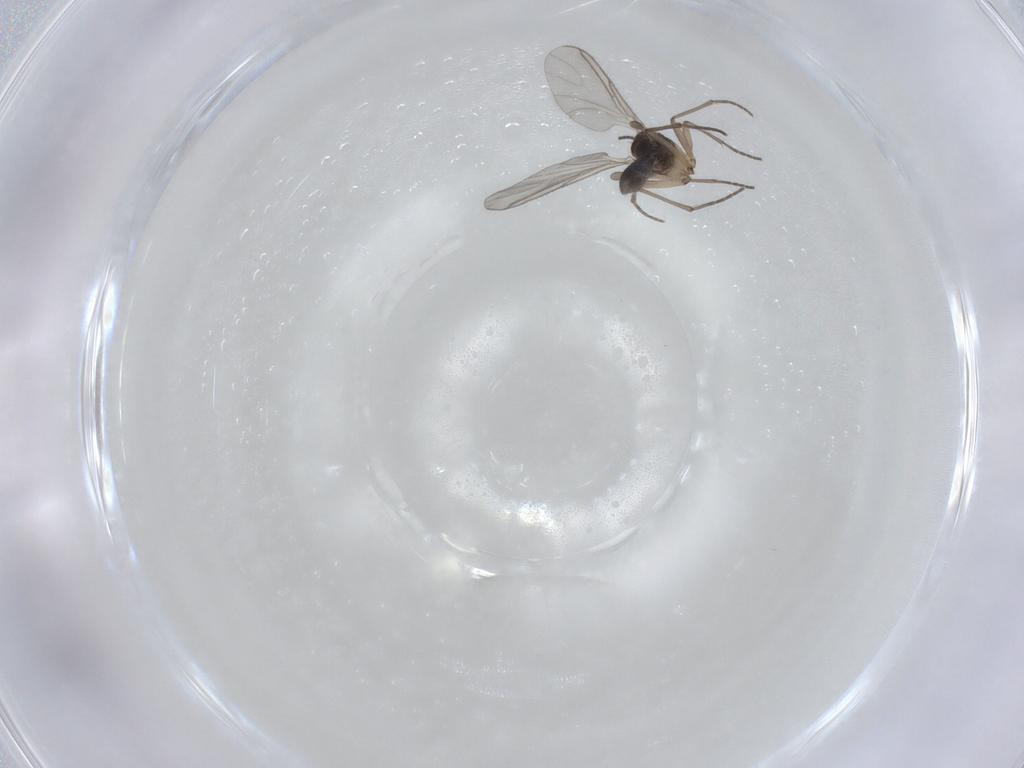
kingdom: Animalia
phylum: Arthropoda
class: Insecta
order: Diptera
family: Sciaridae
